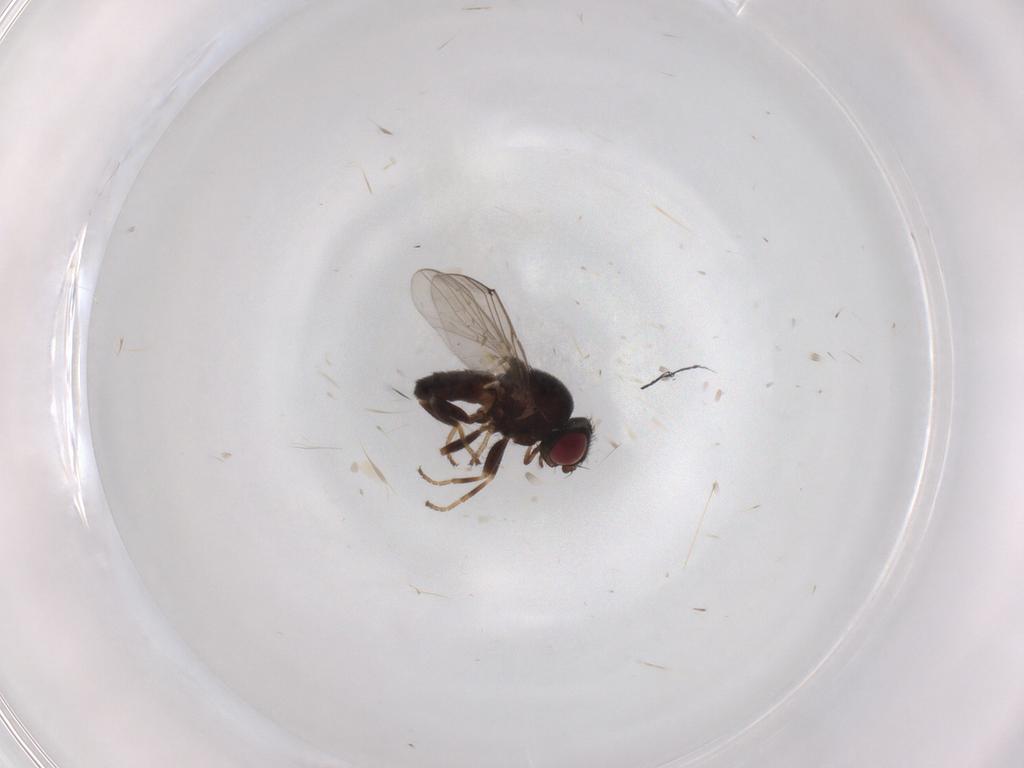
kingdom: Animalia
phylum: Arthropoda
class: Insecta
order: Diptera
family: Chloropidae
